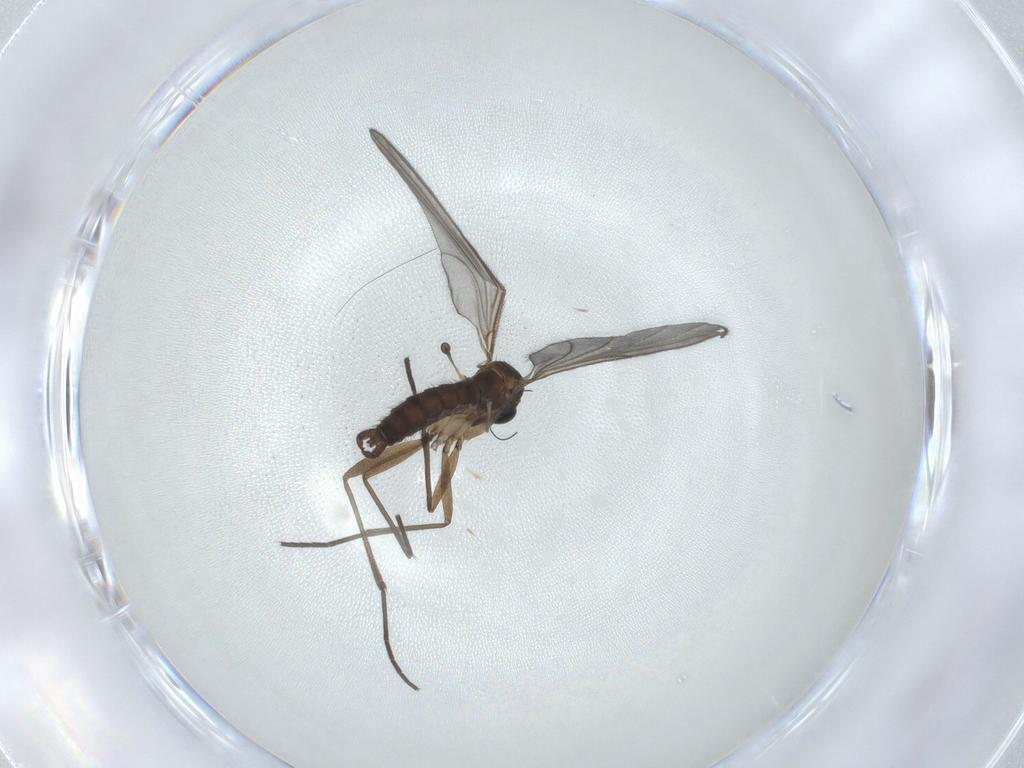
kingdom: Animalia
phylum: Arthropoda
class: Insecta
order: Diptera
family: Sciaridae
